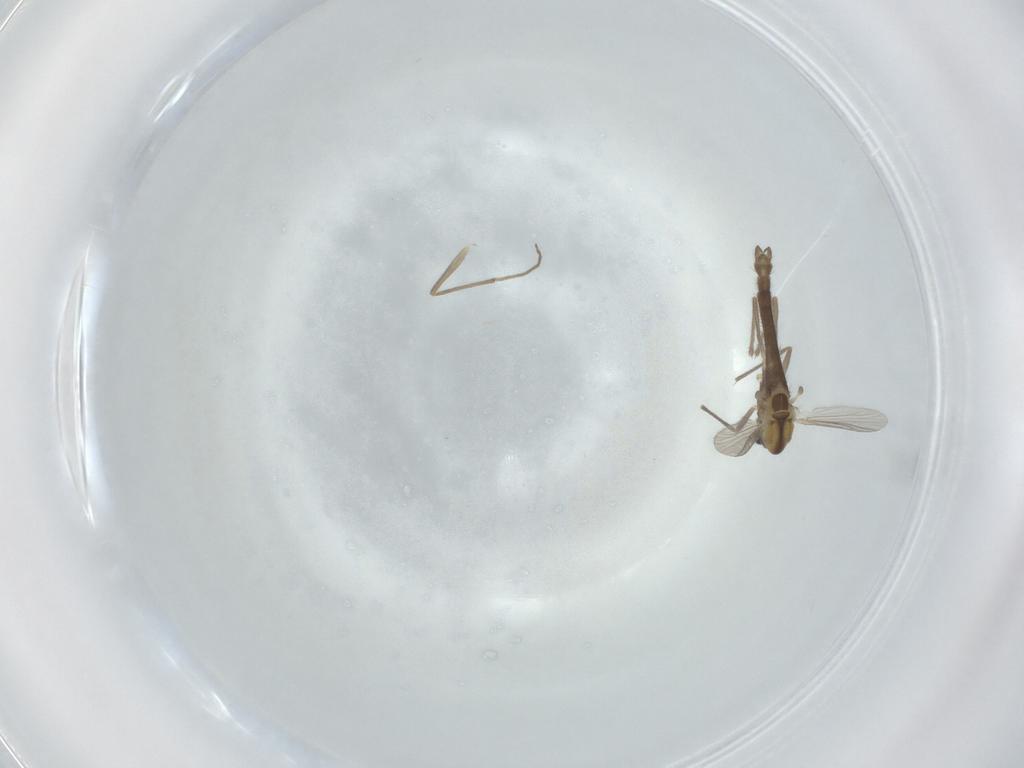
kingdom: Animalia
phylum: Arthropoda
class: Insecta
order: Diptera
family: Chironomidae
